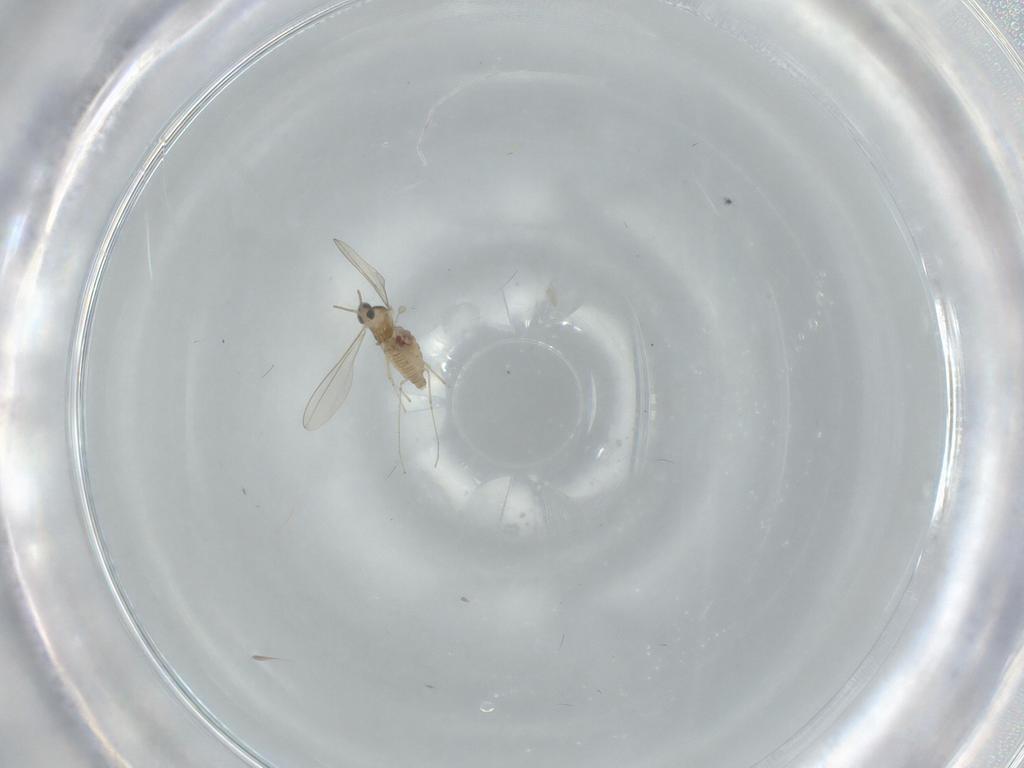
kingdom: Animalia
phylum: Arthropoda
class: Insecta
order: Diptera
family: Cecidomyiidae
